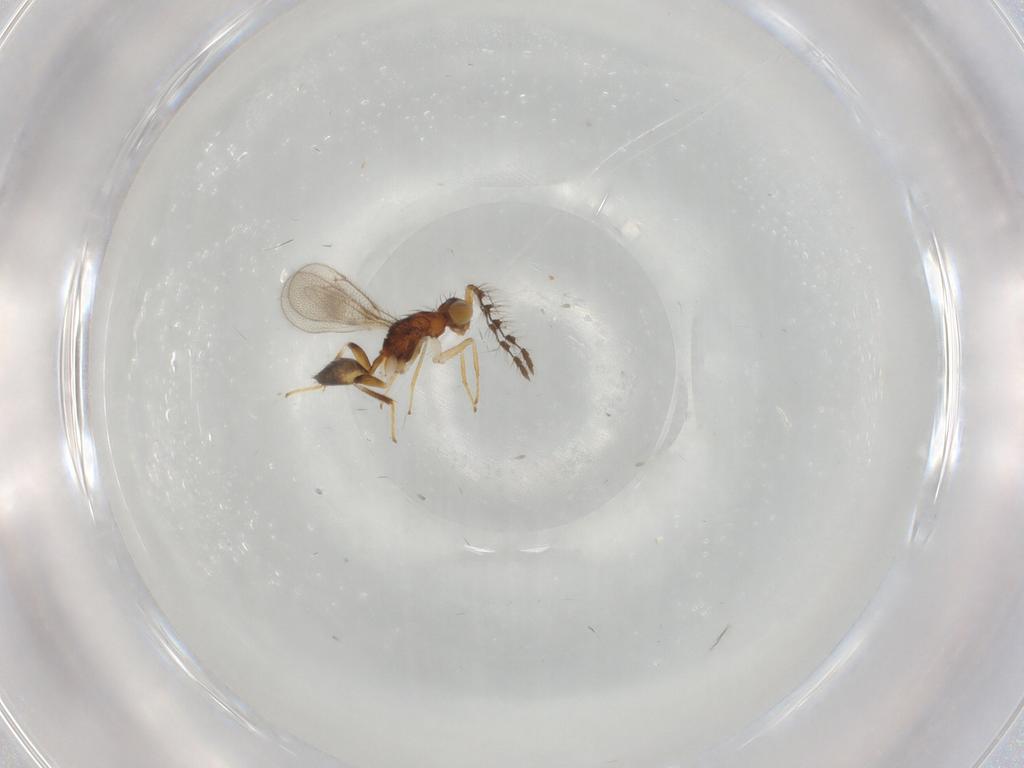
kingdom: Animalia
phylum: Arthropoda
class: Insecta
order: Hymenoptera
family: Eulophidae
